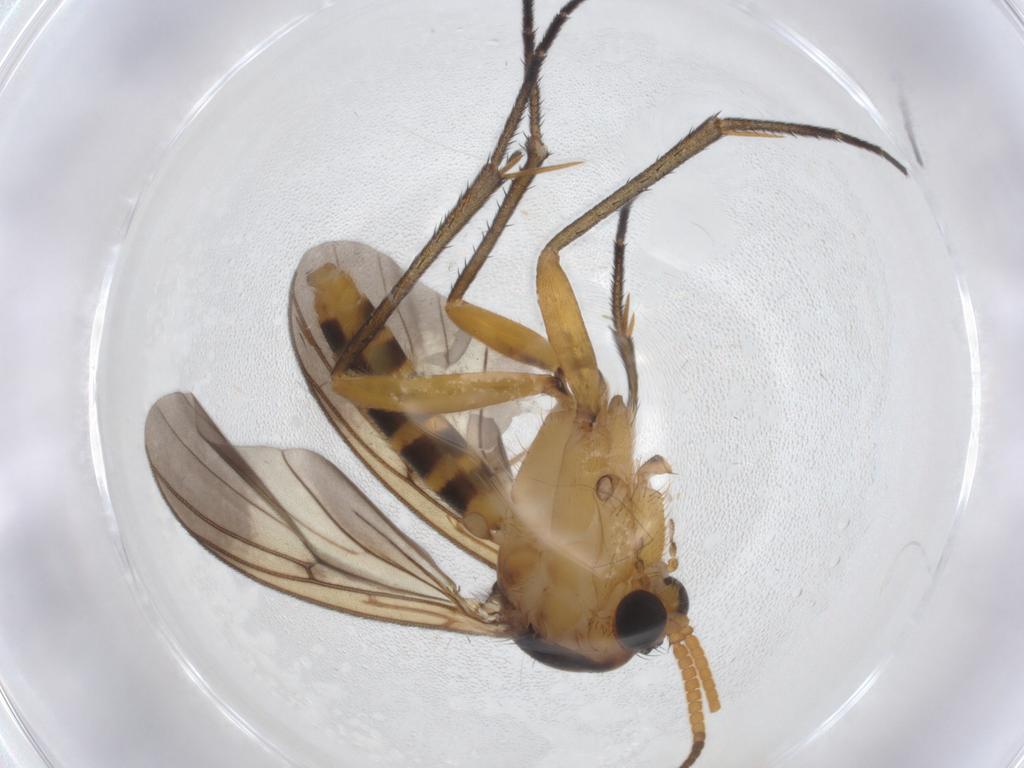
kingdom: Animalia
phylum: Arthropoda
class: Insecta
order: Diptera
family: Mycetophilidae
